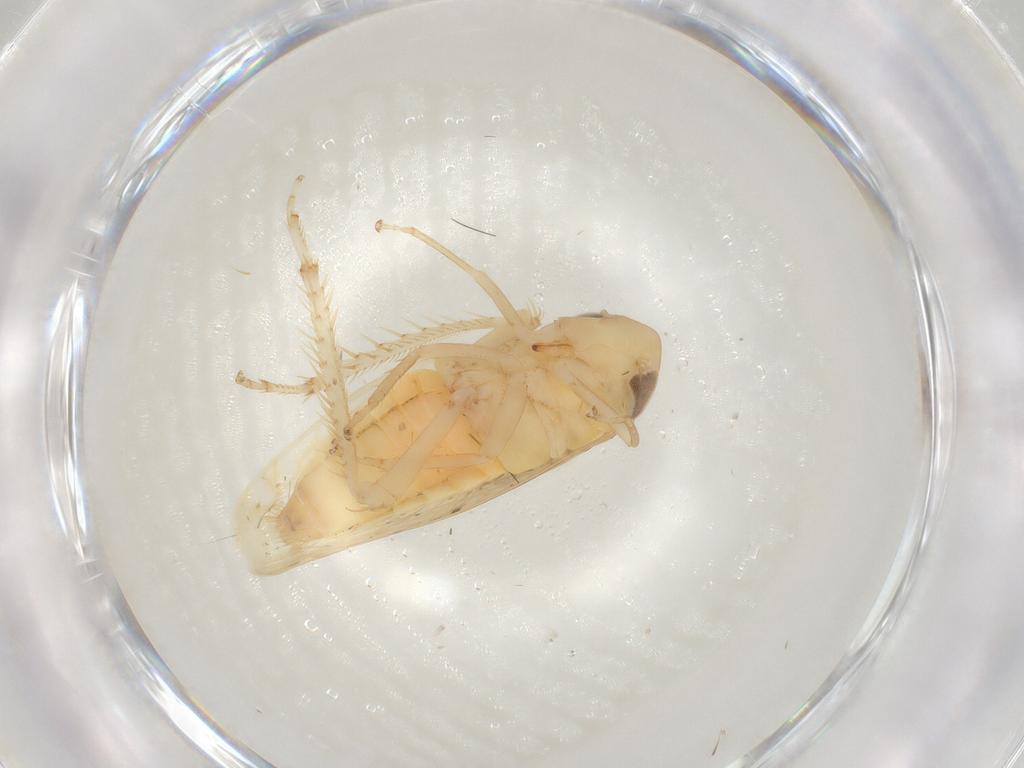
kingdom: Animalia
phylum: Arthropoda
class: Insecta
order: Hemiptera
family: Cicadellidae
